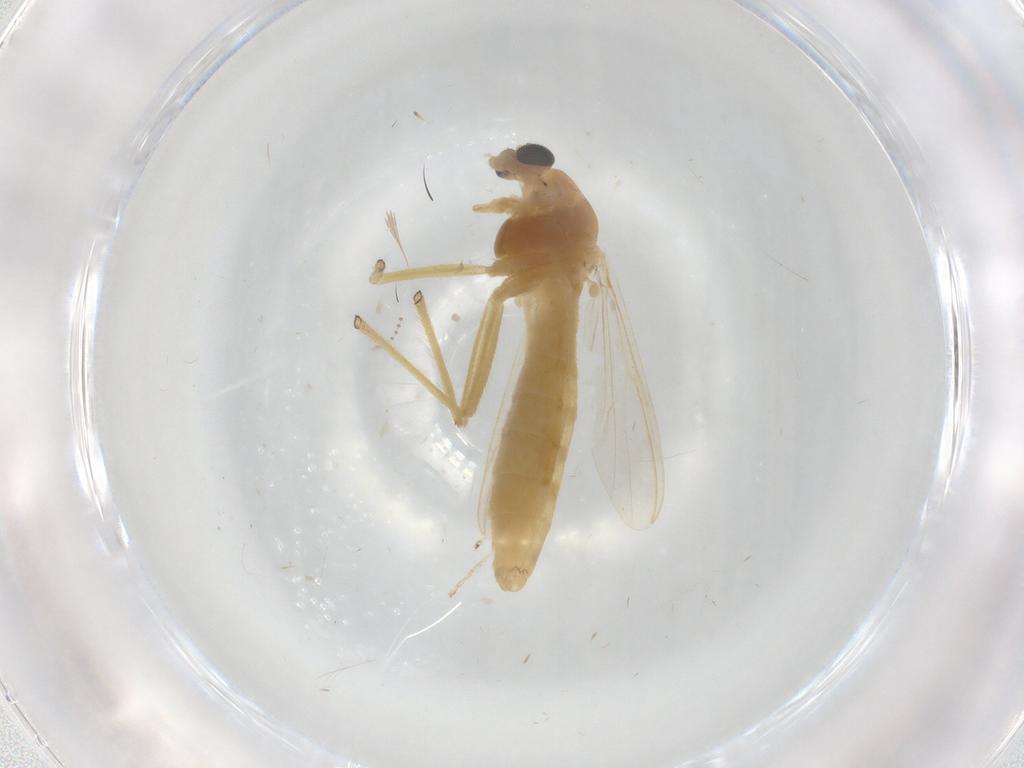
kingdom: Animalia
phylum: Arthropoda
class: Insecta
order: Diptera
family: Chironomidae
